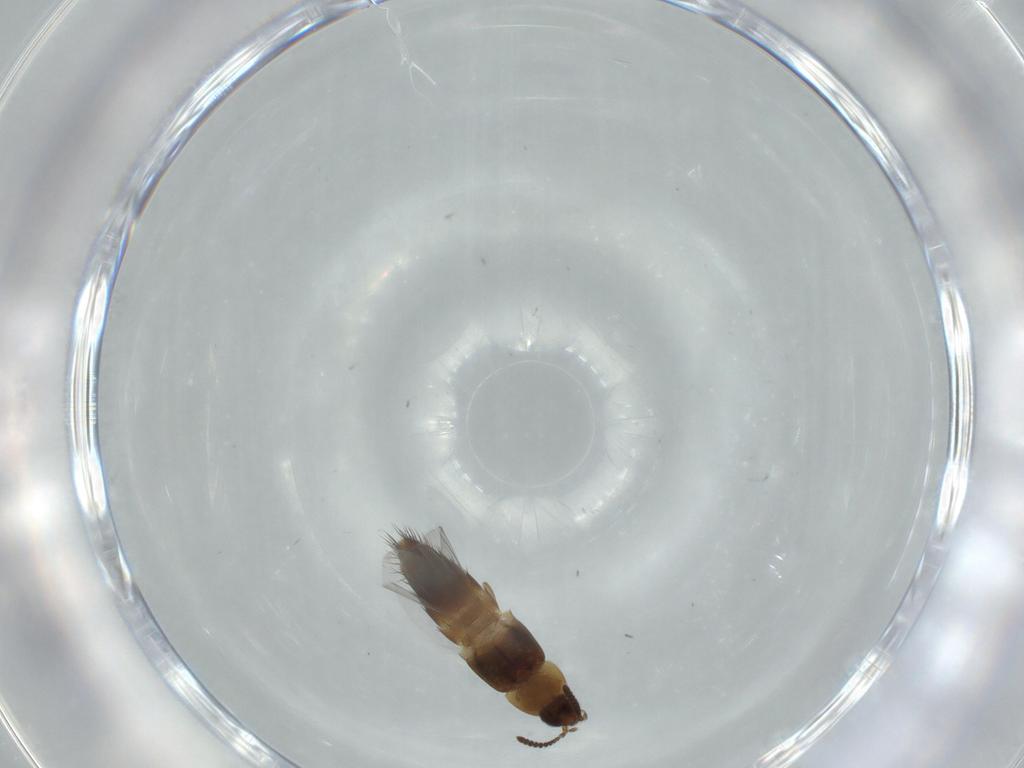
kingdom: Animalia
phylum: Arthropoda
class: Insecta
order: Coleoptera
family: Staphylinidae
